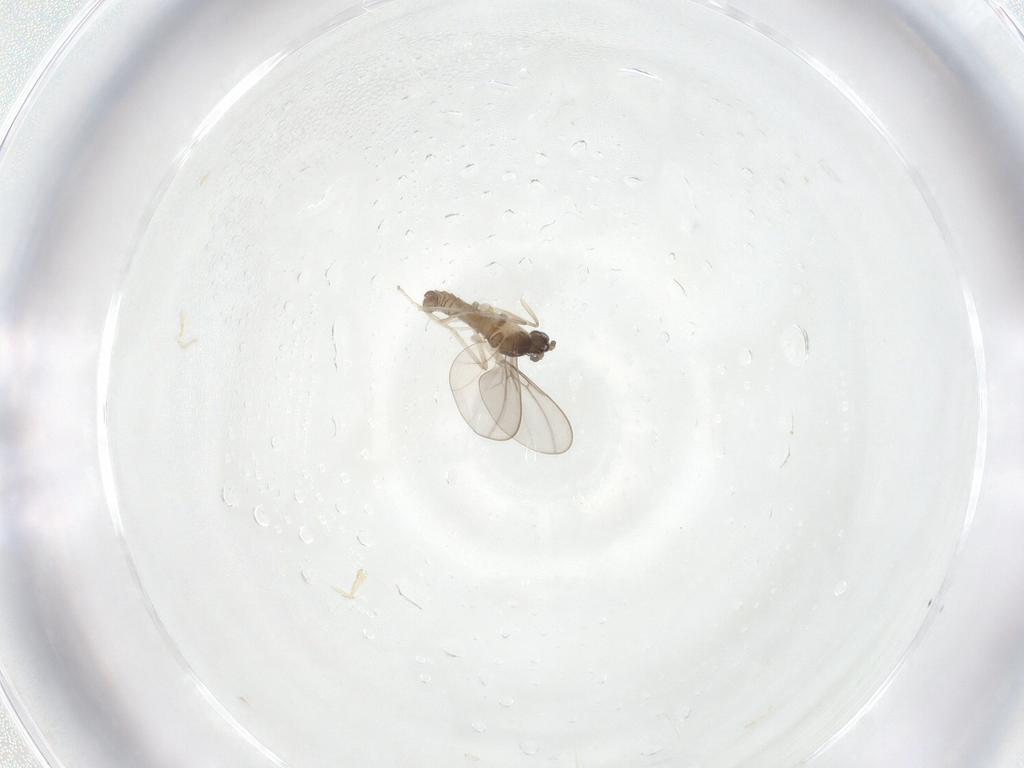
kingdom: Animalia
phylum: Arthropoda
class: Insecta
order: Diptera
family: Cecidomyiidae
